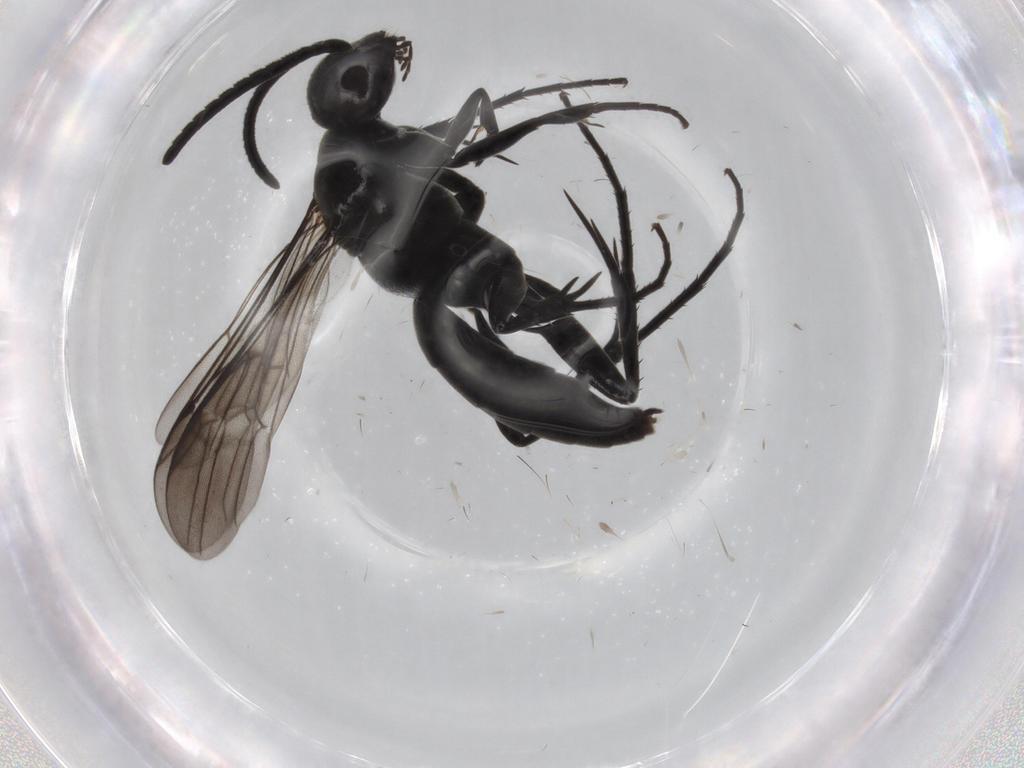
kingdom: Animalia
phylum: Arthropoda
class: Insecta
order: Hymenoptera
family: Pompilidae
